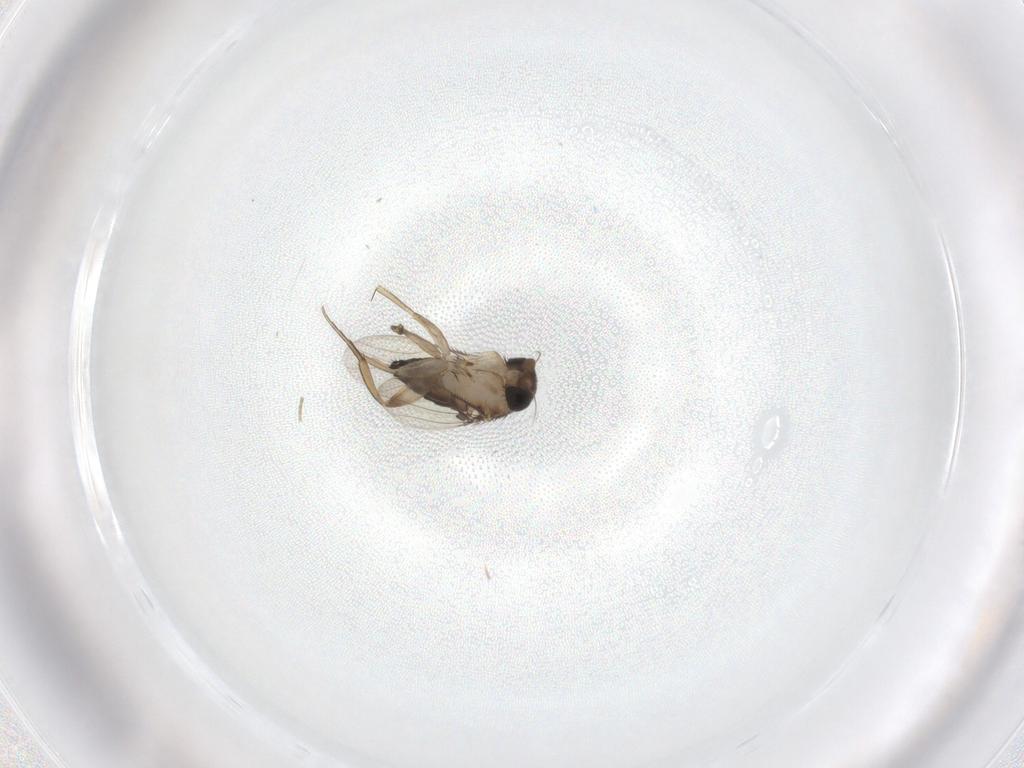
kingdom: Animalia
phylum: Arthropoda
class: Insecta
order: Diptera
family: Phoridae
